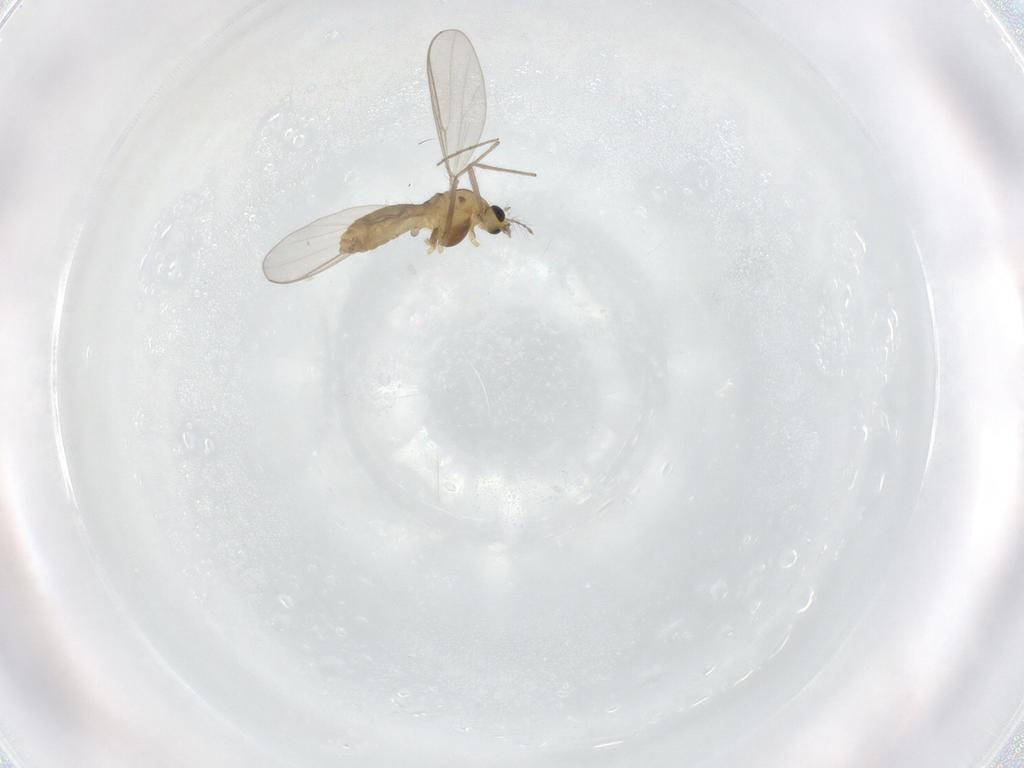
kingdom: Animalia
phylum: Arthropoda
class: Insecta
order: Diptera
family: Chironomidae
